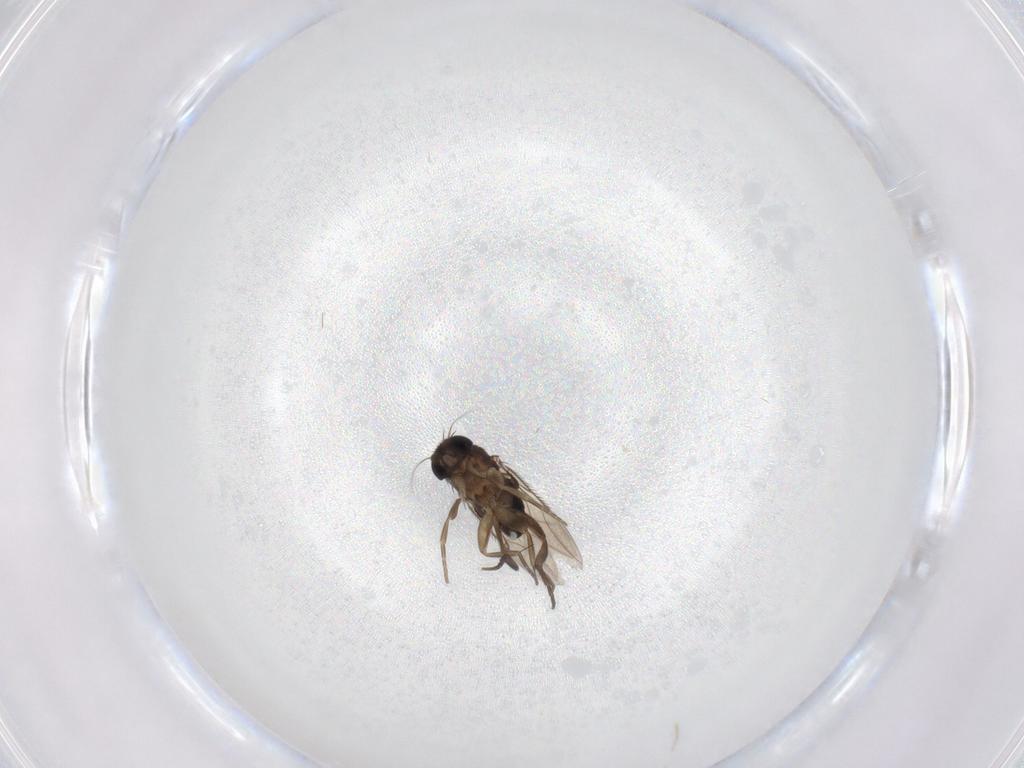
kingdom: Animalia
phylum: Arthropoda
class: Insecta
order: Diptera
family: Phoridae
